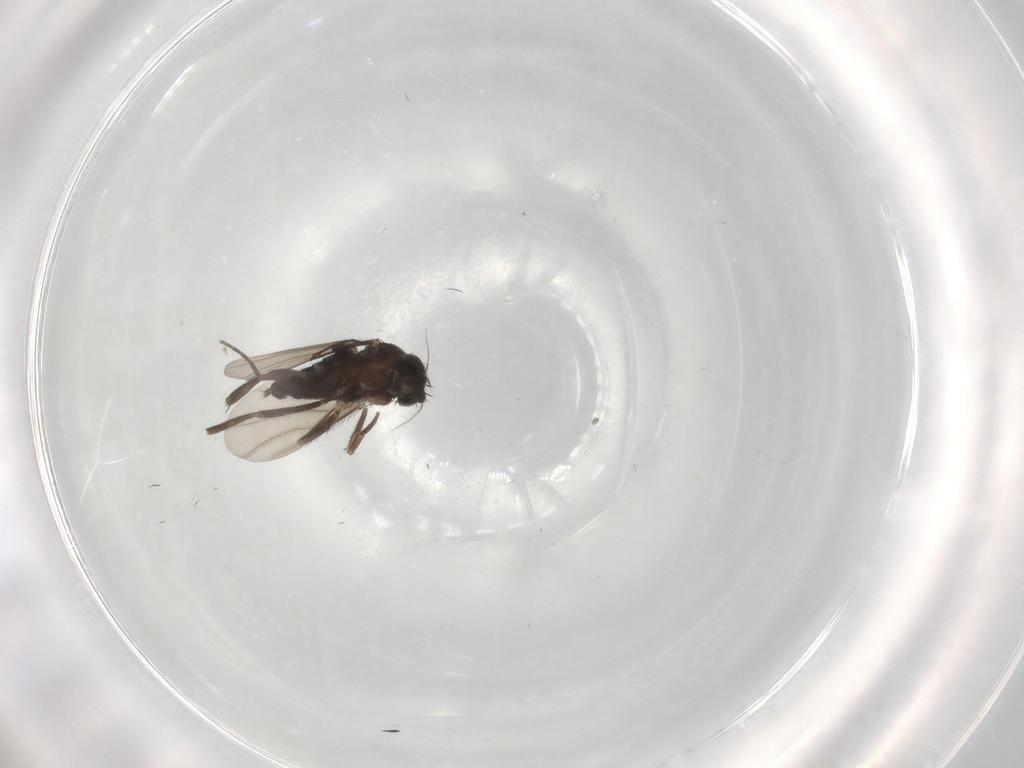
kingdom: Animalia
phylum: Arthropoda
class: Insecta
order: Diptera
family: Phoridae
